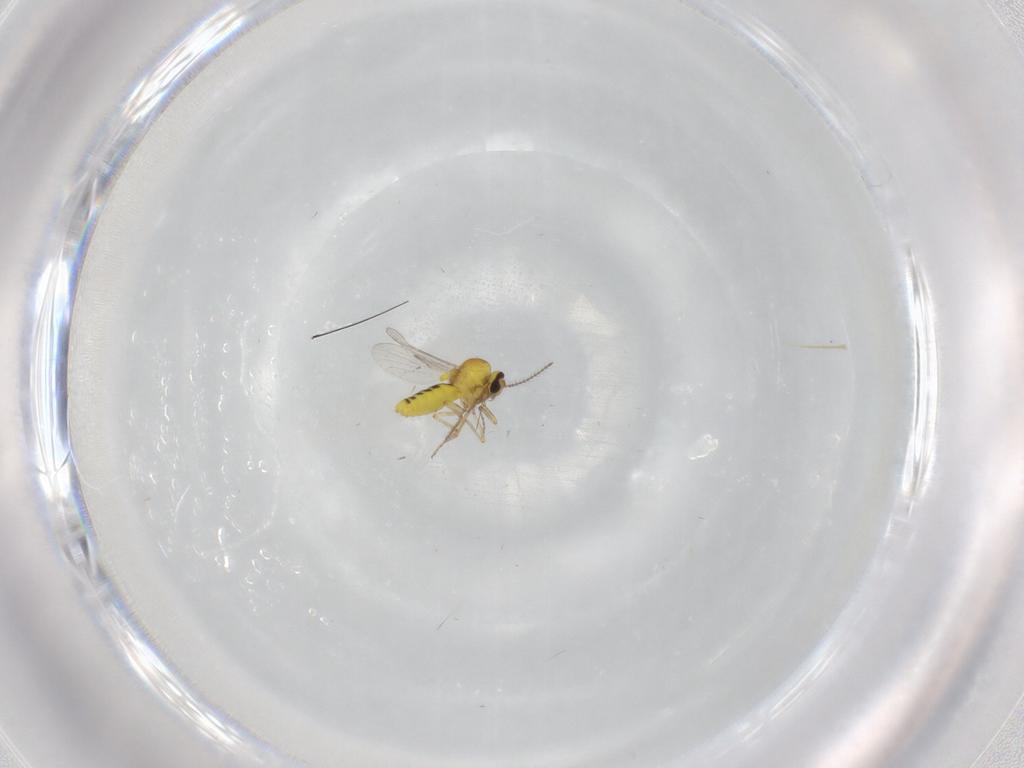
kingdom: Animalia
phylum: Arthropoda
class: Insecta
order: Diptera
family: Ceratopogonidae
